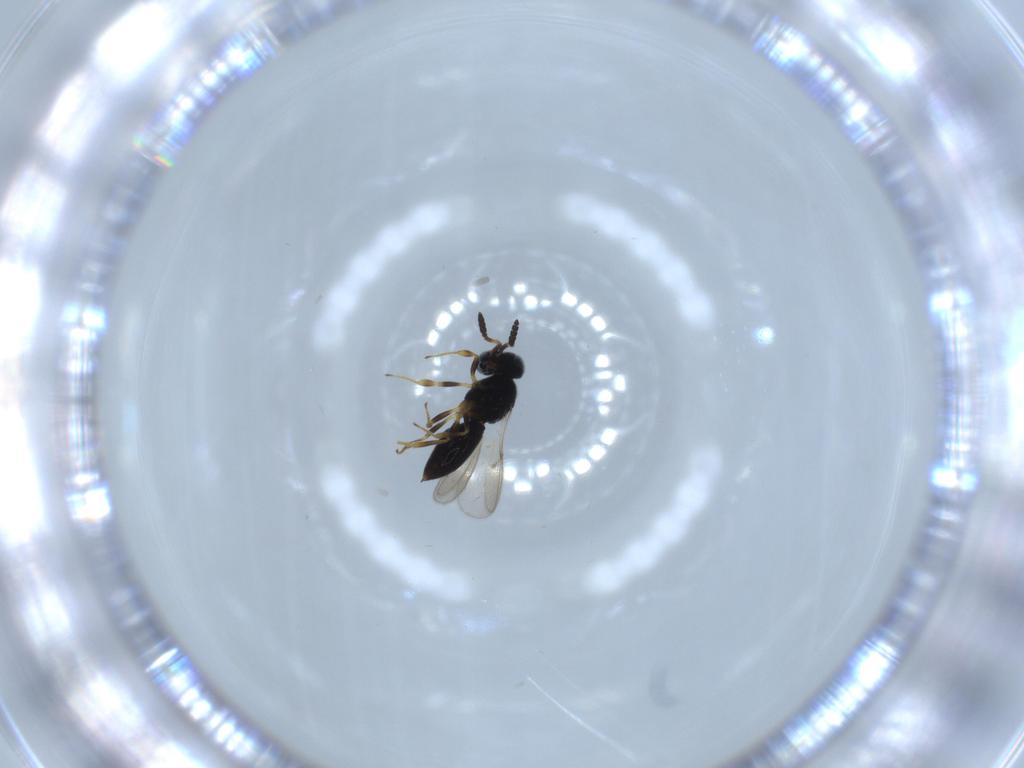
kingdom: Animalia
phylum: Arthropoda
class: Insecta
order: Hymenoptera
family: Scelionidae
